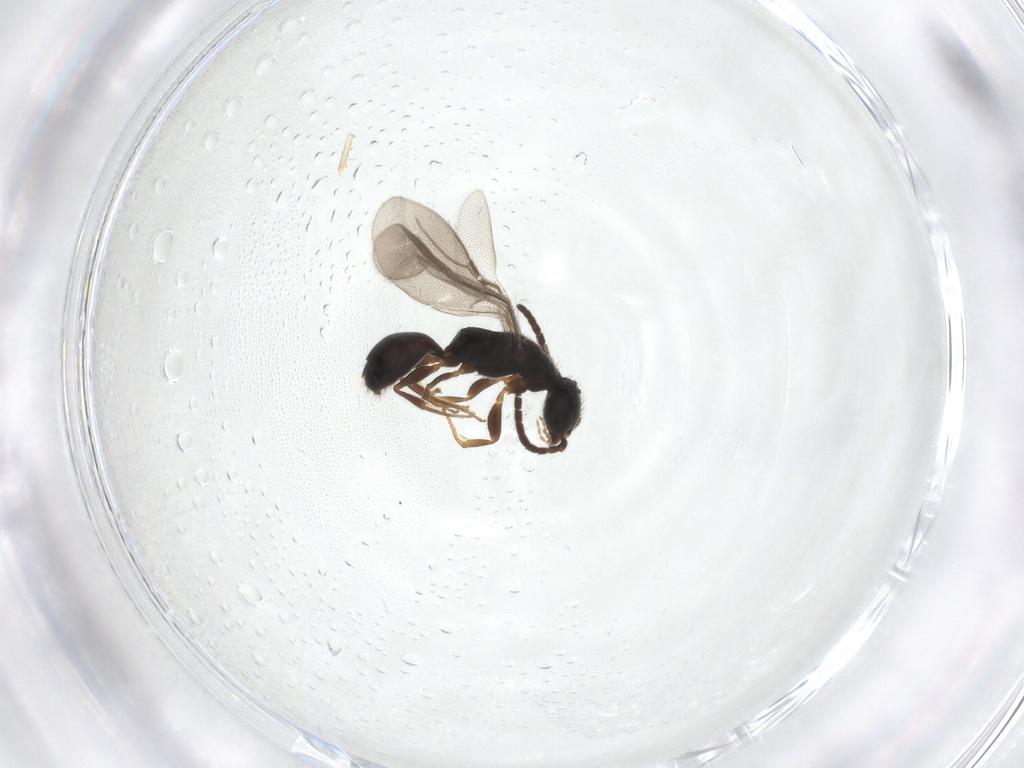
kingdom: Animalia
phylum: Arthropoda
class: Insecta
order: Hymenoptera
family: Bethylidae
